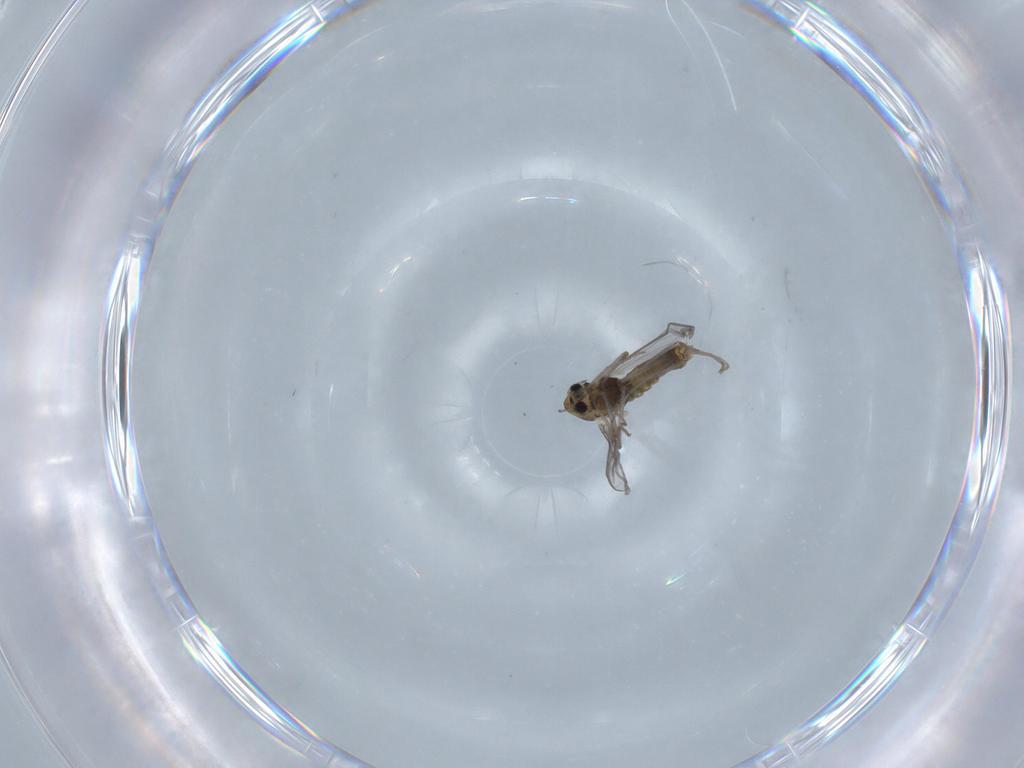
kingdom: Animalia
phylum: Arthropoda
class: Insecta
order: Diptera
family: Chironomidae
